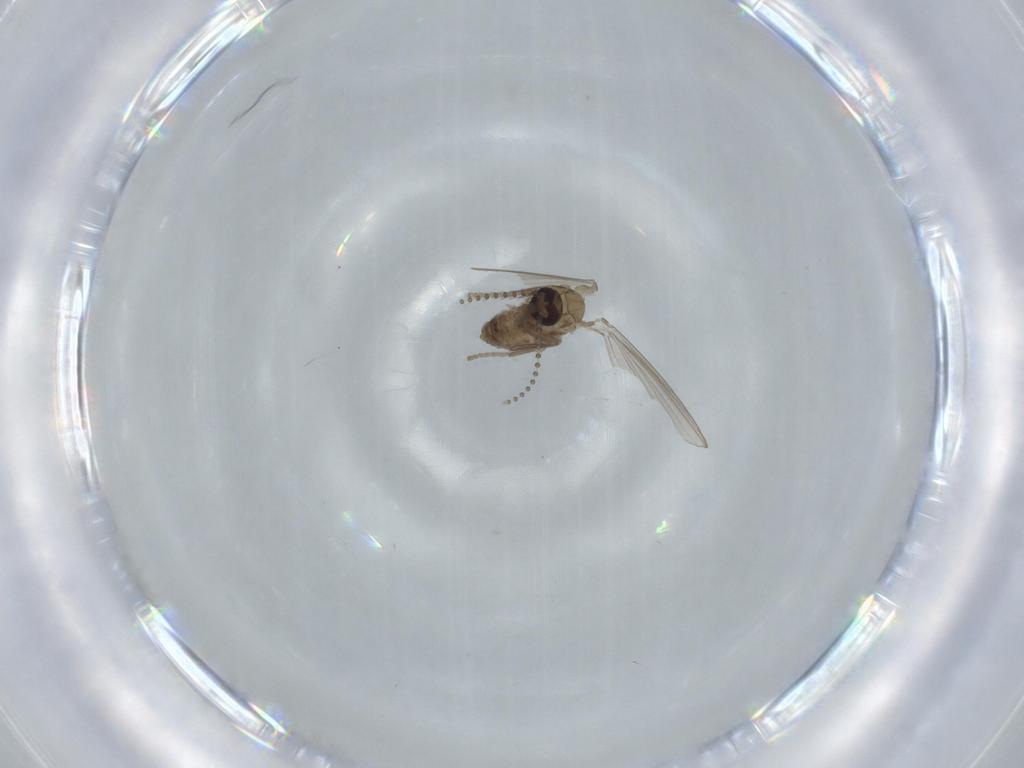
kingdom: Animalia
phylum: Arthropoda
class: Insecta
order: Diptera
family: Psychodidae
